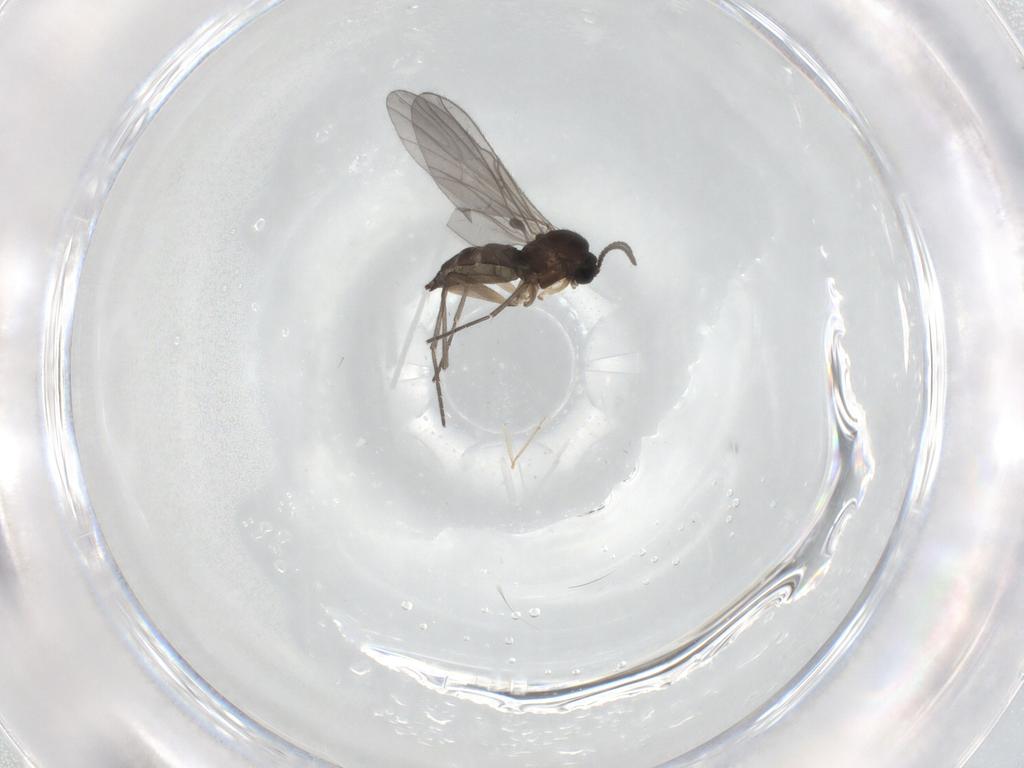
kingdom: Animalia
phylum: Arthropoda
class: Insecta
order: Diptera
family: Sciaridae
